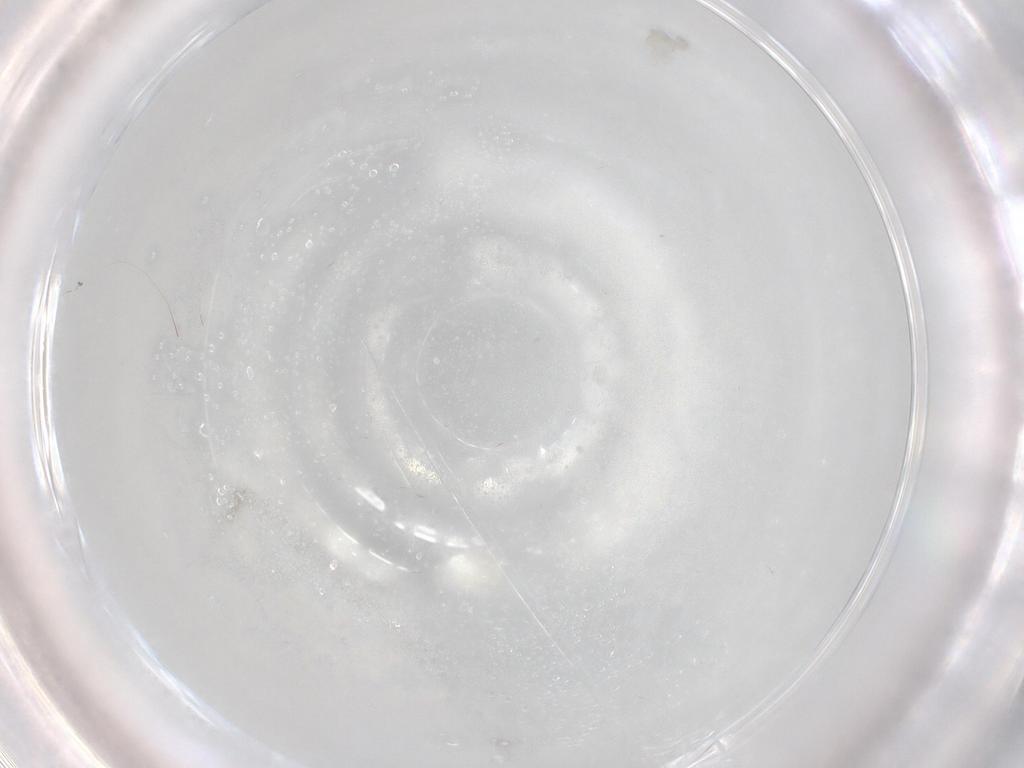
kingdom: Animalia
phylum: Arthropoda
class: Insecta
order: Diptera
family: Cecidomyiidae
